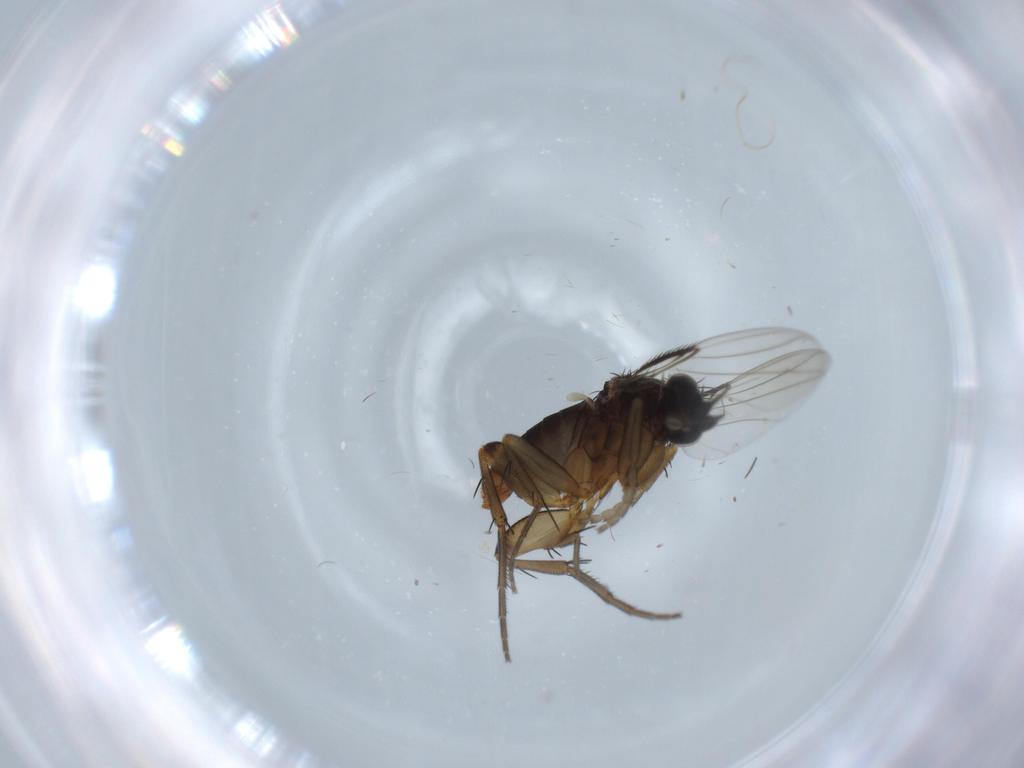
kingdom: Animalia
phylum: Arthropoda
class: Insecta
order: Diptera
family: Phoridae
